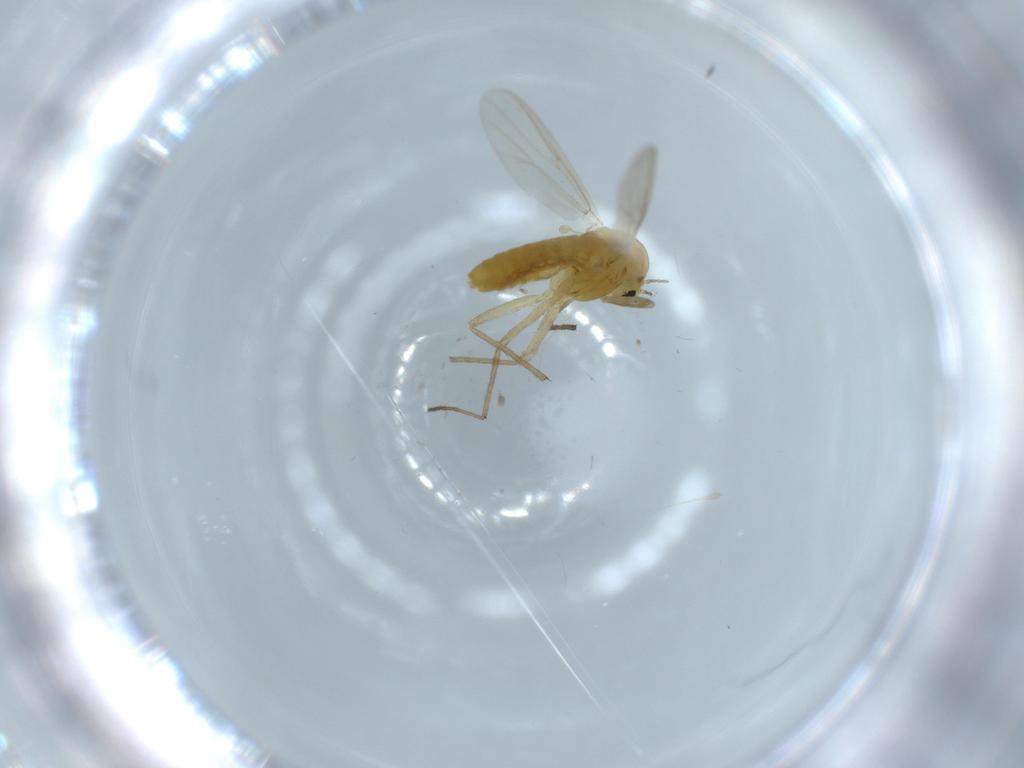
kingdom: Animalia
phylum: Arthropoda
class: Insecta
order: Diptera
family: Chironomidae
